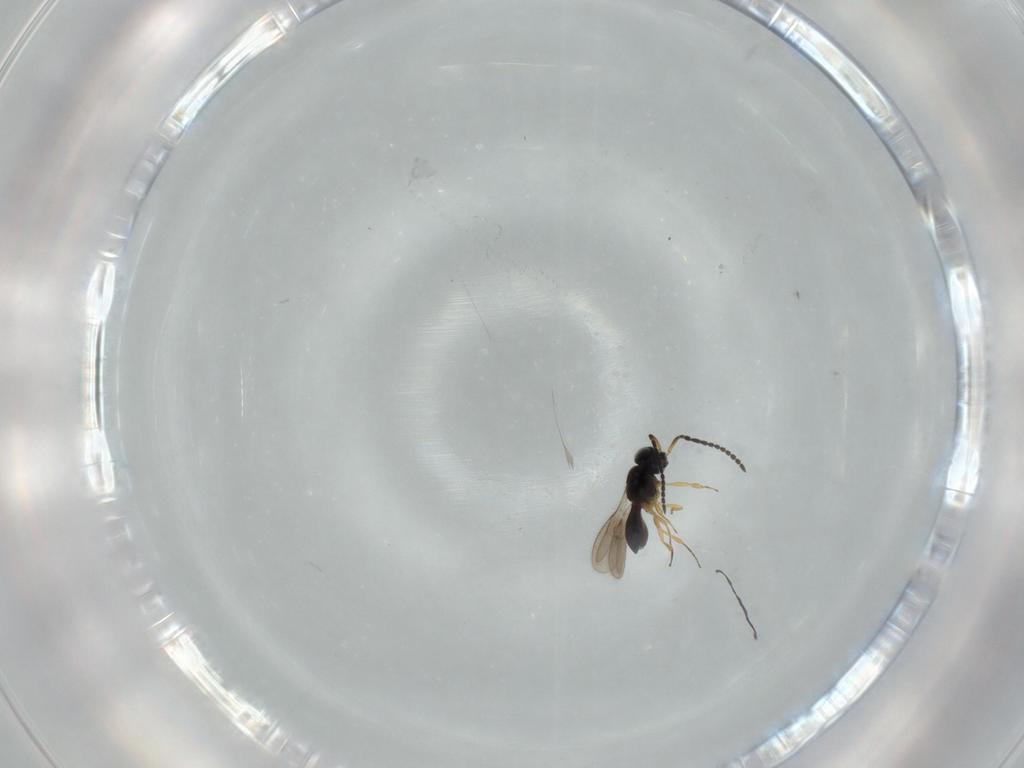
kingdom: Animalia
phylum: Arthropoda
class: Insecta
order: Hymenoptera
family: Scelionidae
